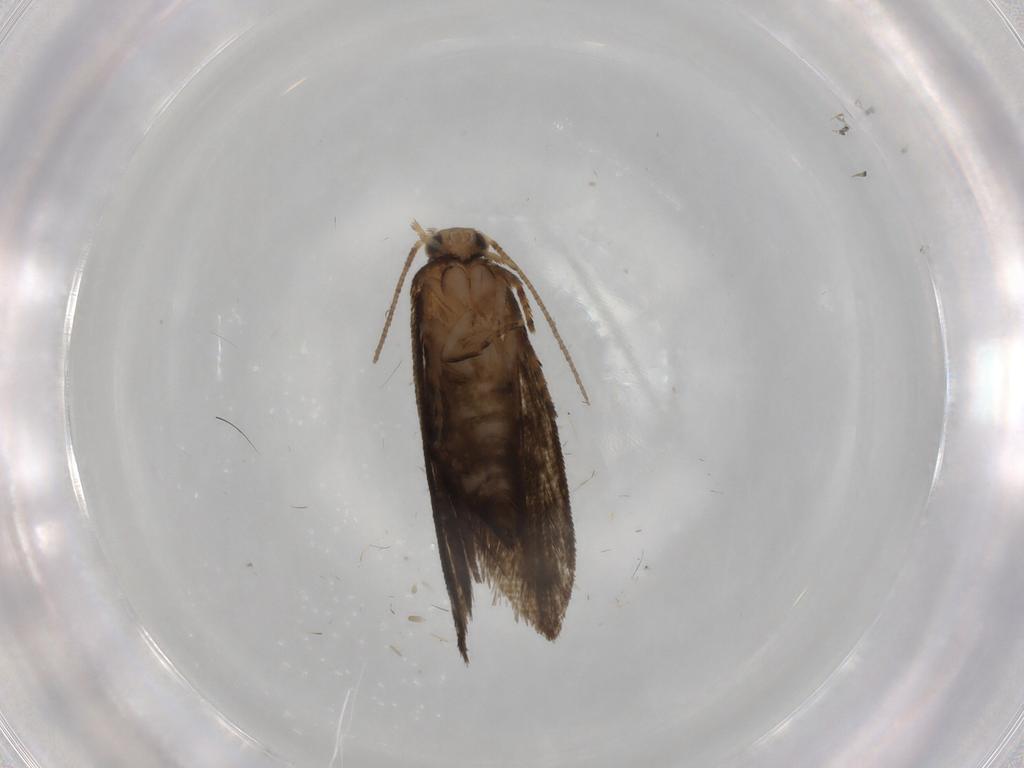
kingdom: Animalia
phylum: Arthropoda
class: Insecta
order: Lepidoptera
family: Crambidae
